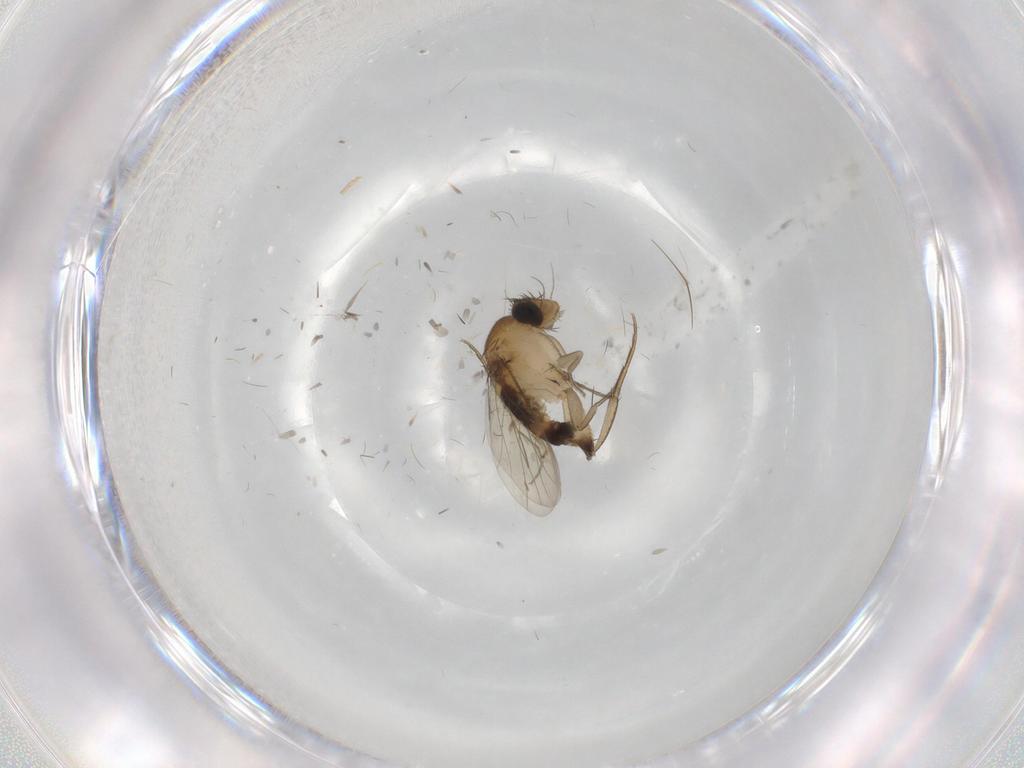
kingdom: Animalia
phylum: Arthropoda
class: Insecta
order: Diptera
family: Phoridae
